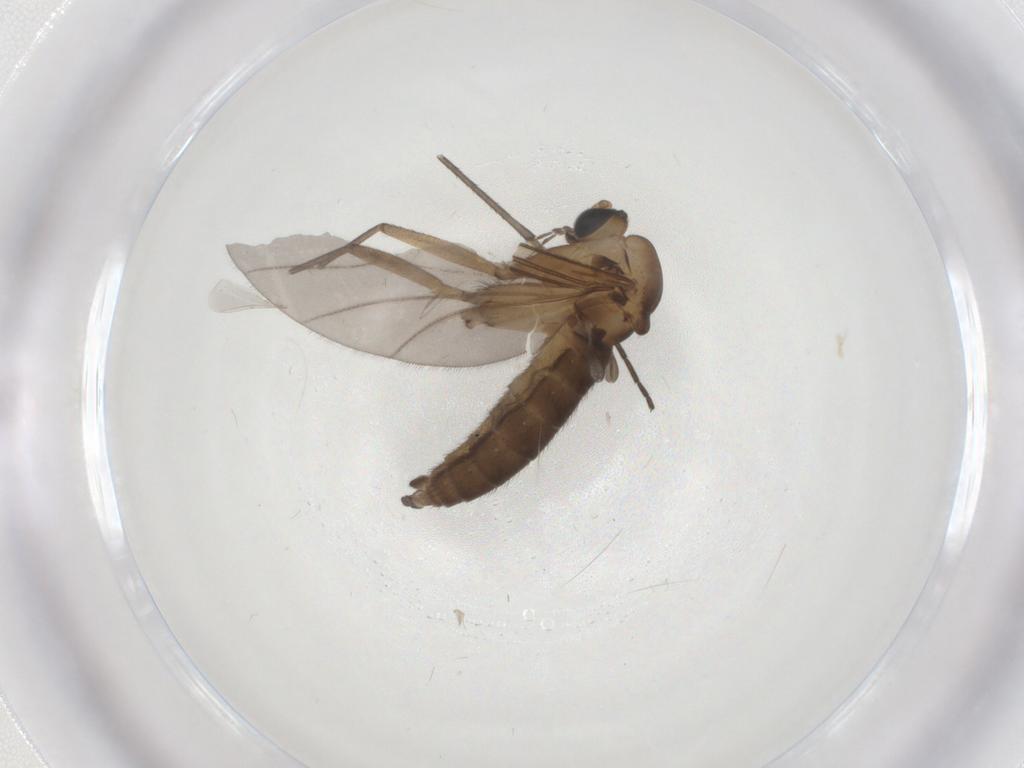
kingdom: Animalia
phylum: Arthropoda
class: Insecta
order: Diptera
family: Sciaridae
